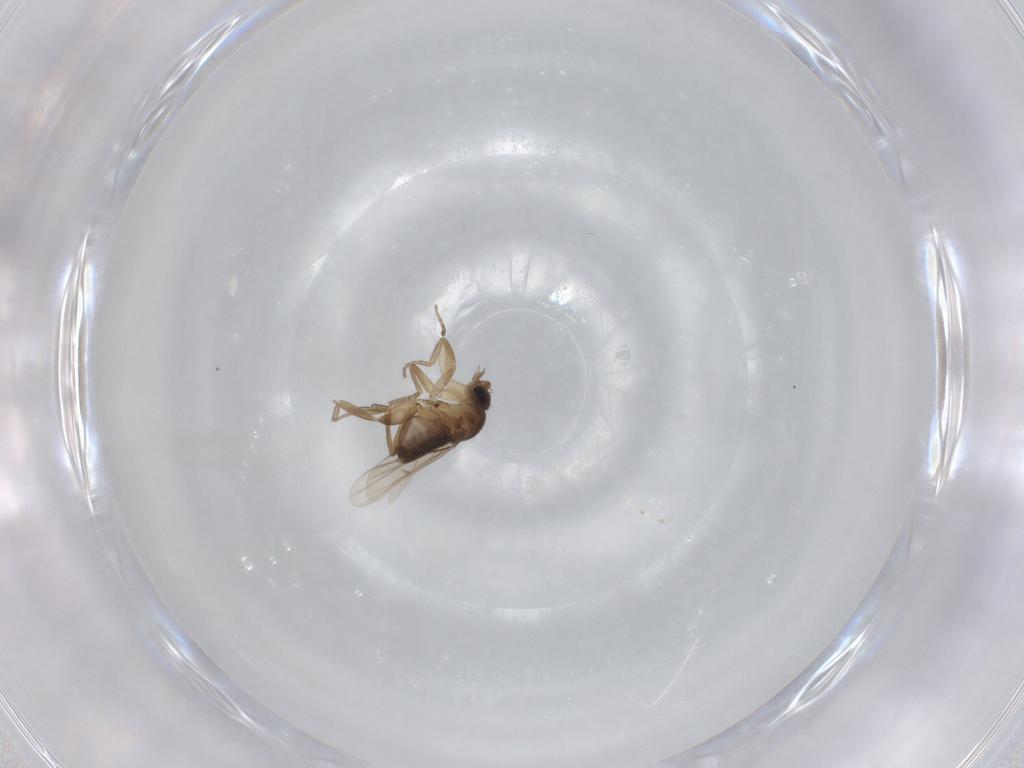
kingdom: Animalia
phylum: Arthropoda
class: Insecta
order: Diptera
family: Phoridae
